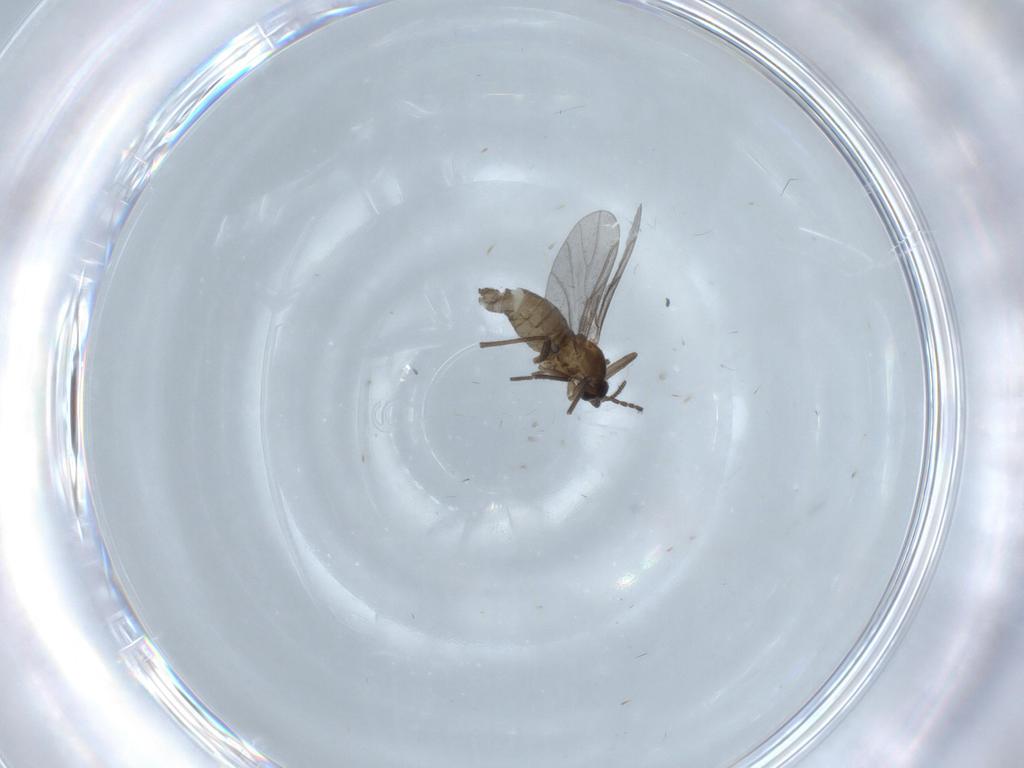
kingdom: Animalia
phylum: Arthropoda
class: Insecta
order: Diptera
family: Cecidomyiidae
